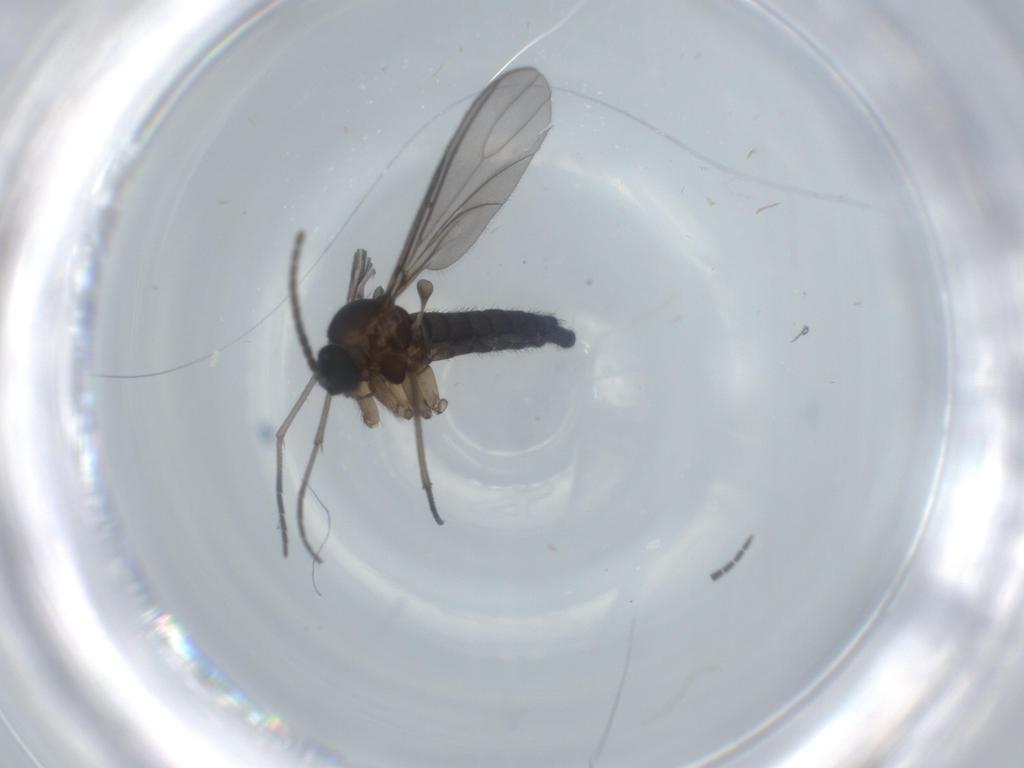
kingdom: Animalia
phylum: Arthropoda
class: Insecta
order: Diptera
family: Sciaridae
